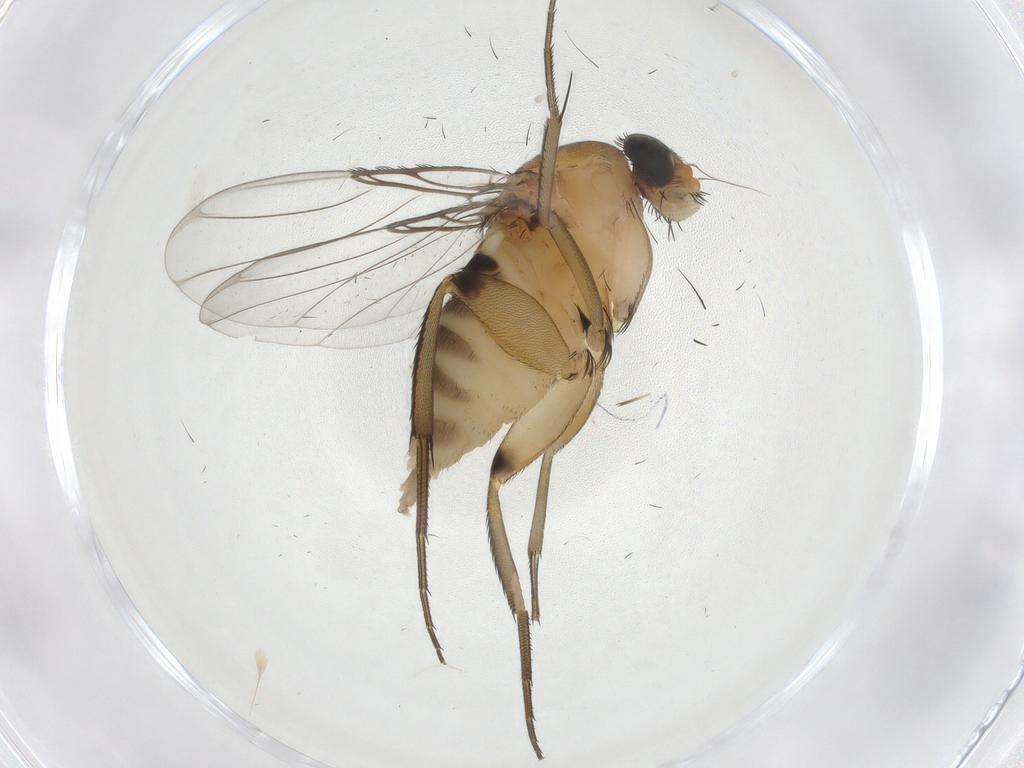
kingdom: Animalia
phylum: Arthropoda
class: Insecta
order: Diptera
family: Phoridae
